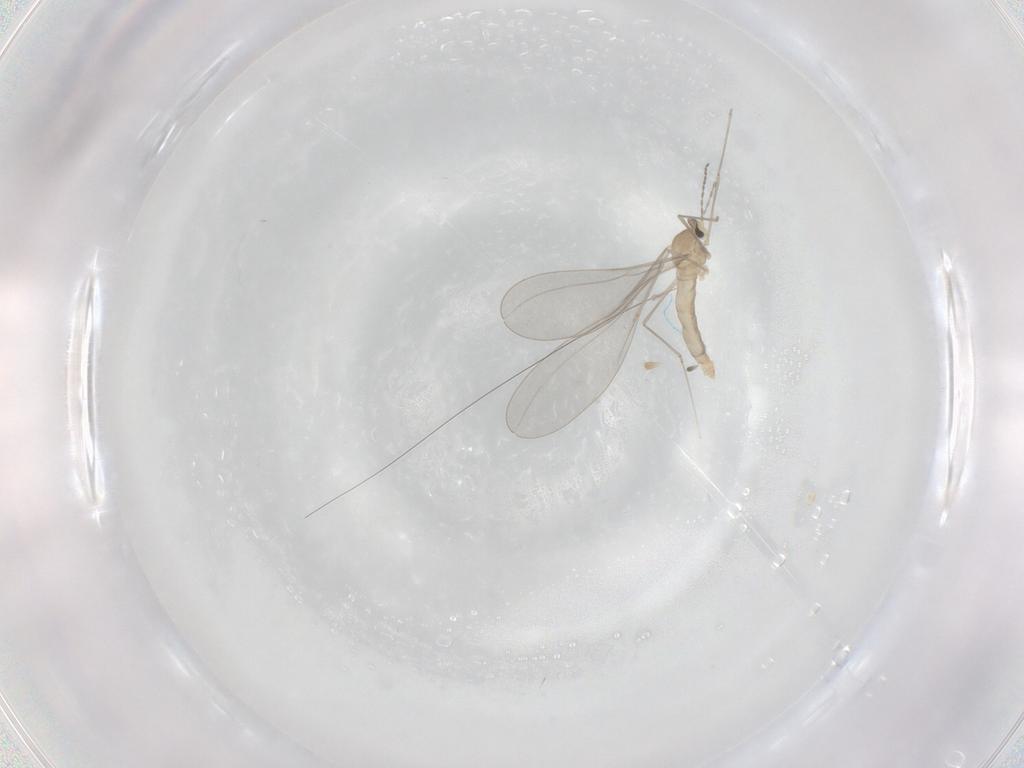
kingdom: Animalia
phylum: Arthropoda
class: Insecta
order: Diptera
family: Cecidomyiidae
